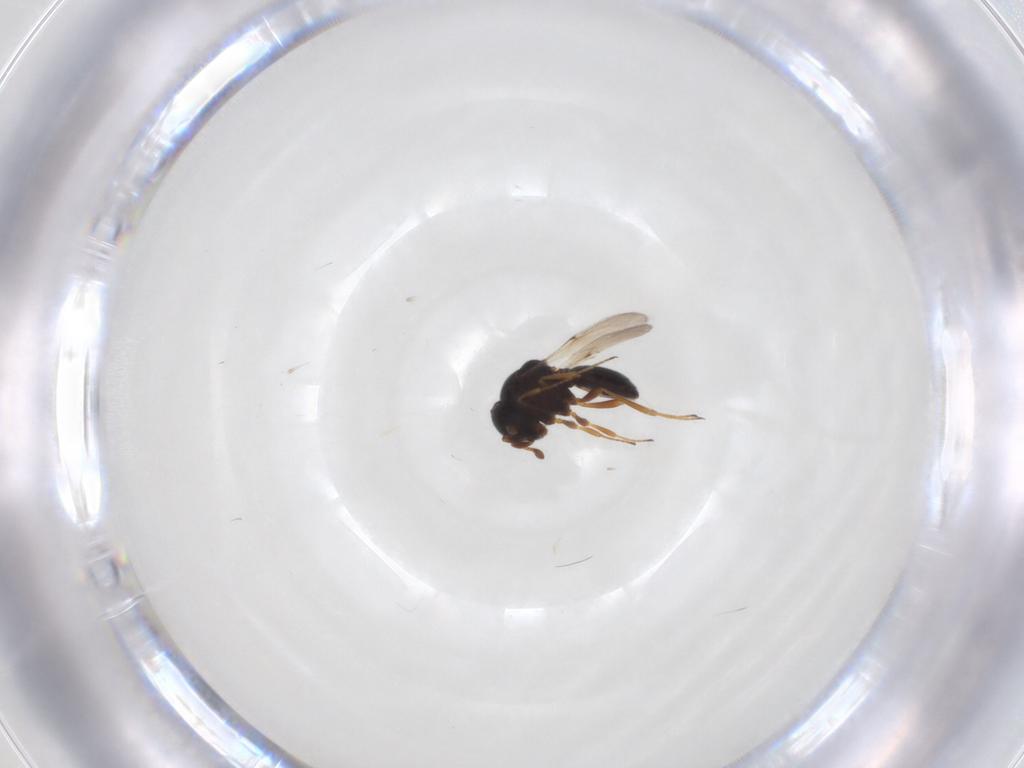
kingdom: Animalia
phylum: Arthropoda
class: Insecta
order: Hymenoptera
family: Scelionidae
